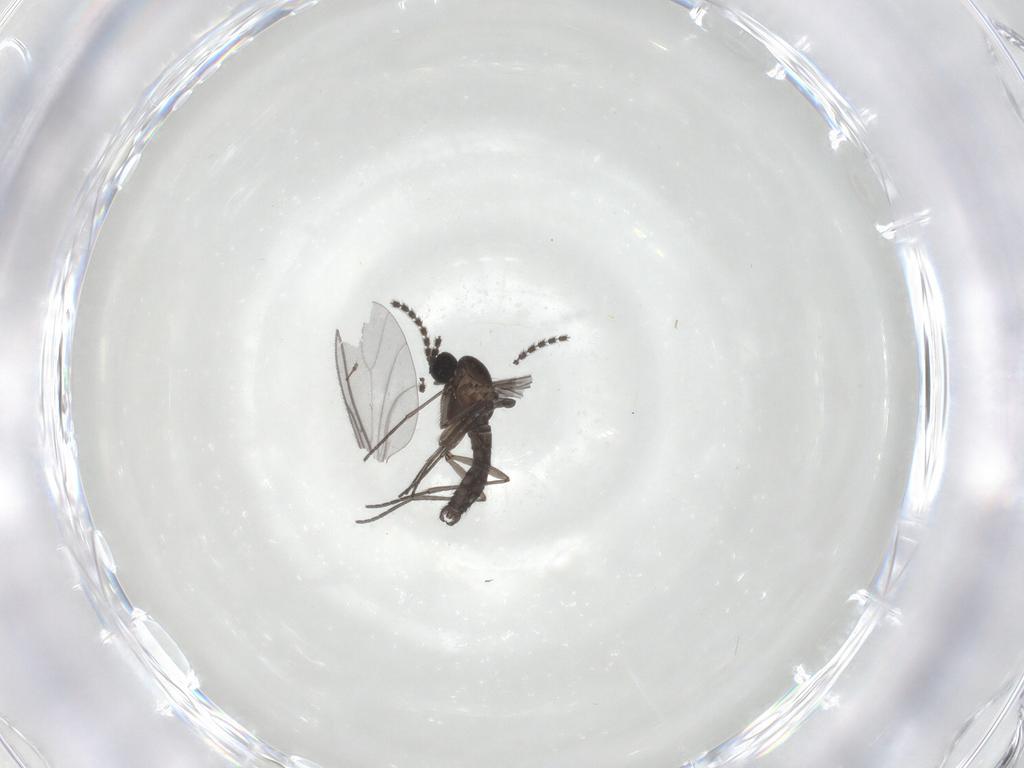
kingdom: Animalia
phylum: Arthropoda
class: Insecta
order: Diptera
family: Sciaridae
